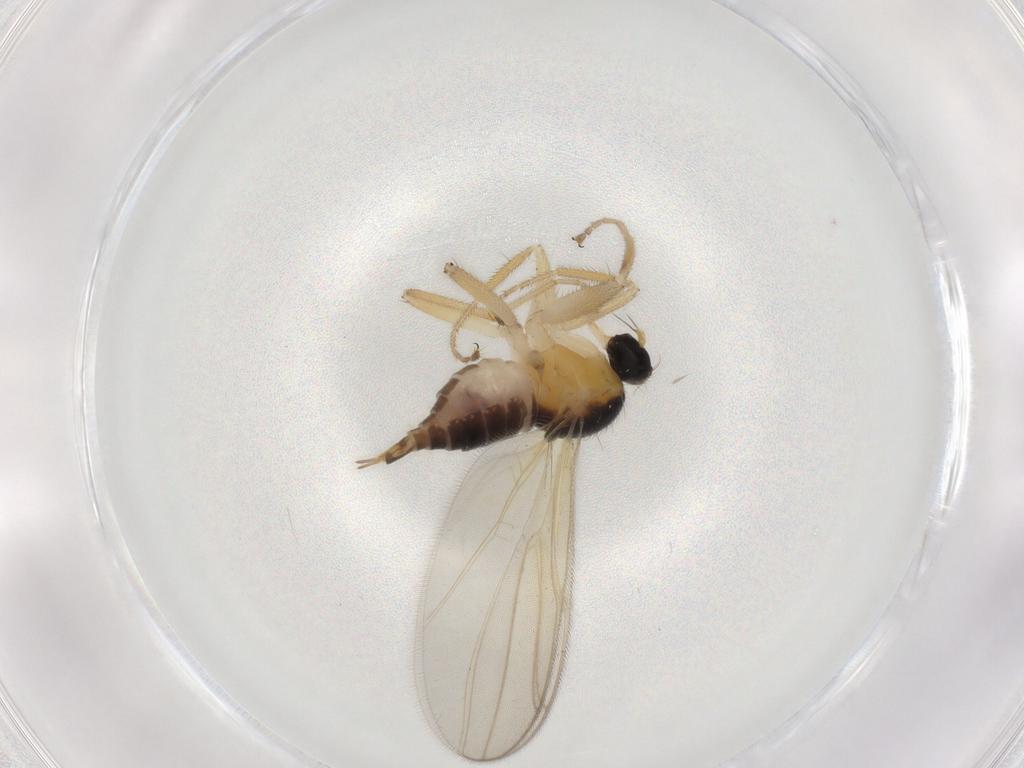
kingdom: Animalia
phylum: Arthropoda
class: Insecta
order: Diptera
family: Chironomidae
